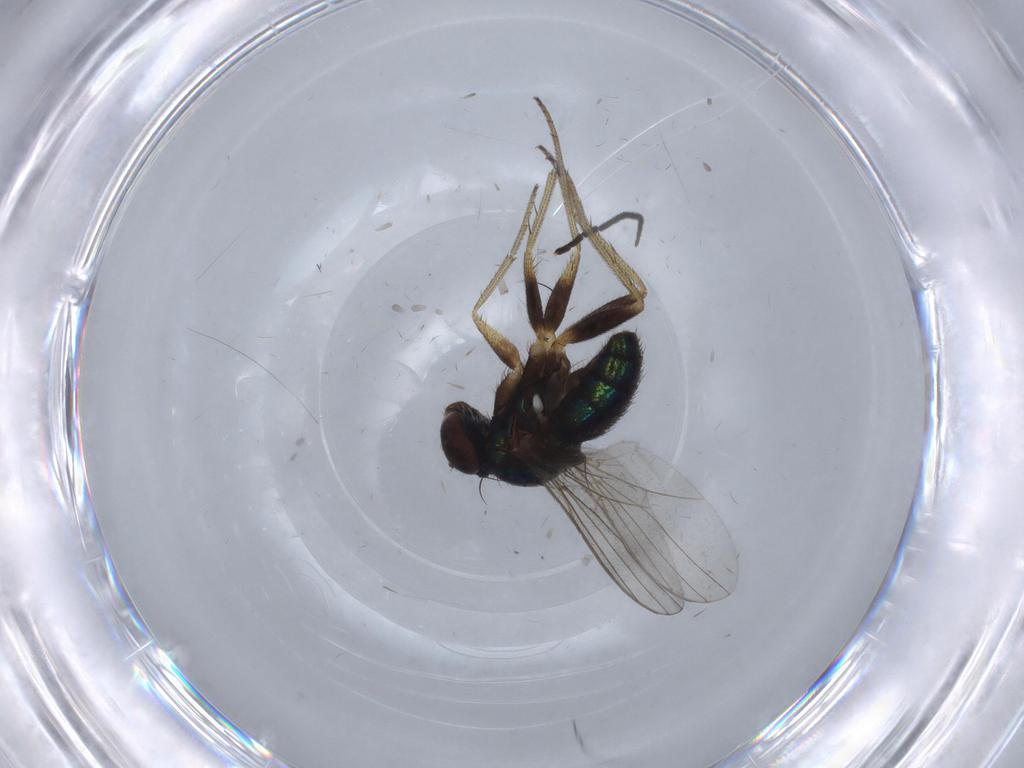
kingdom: Animalia
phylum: Arthropoda
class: Insecta
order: Diptera
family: Sciaridae
